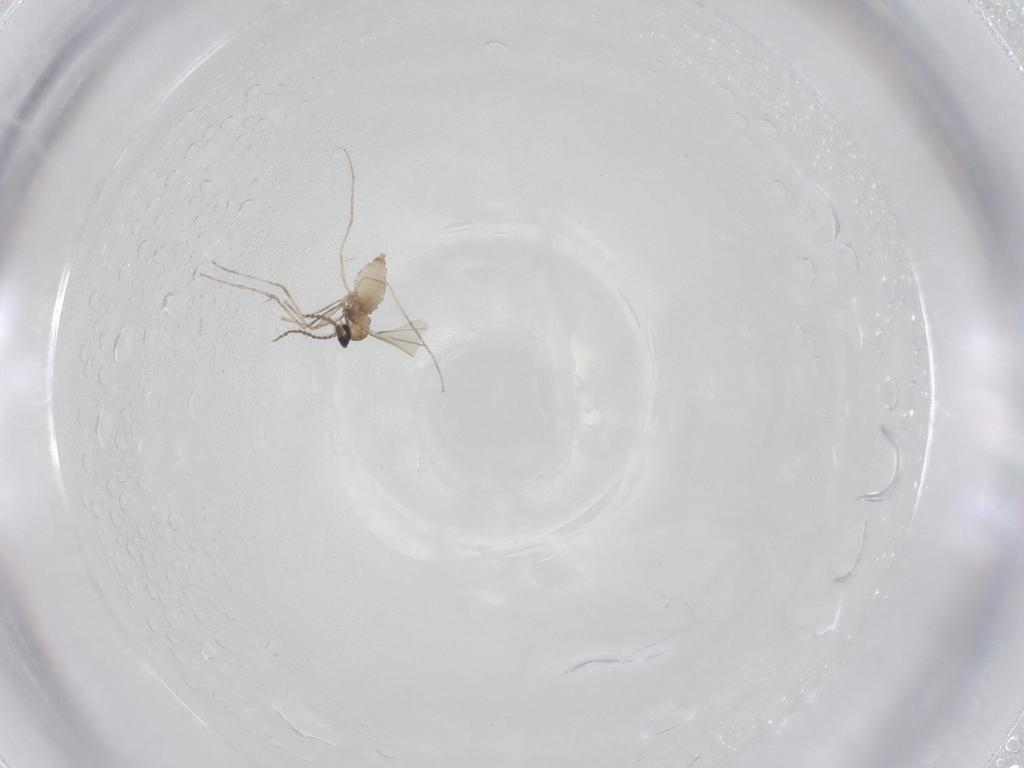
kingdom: Animalia
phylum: Arthropoda
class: Insecta
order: Diptera
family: Cecidomyiidae
